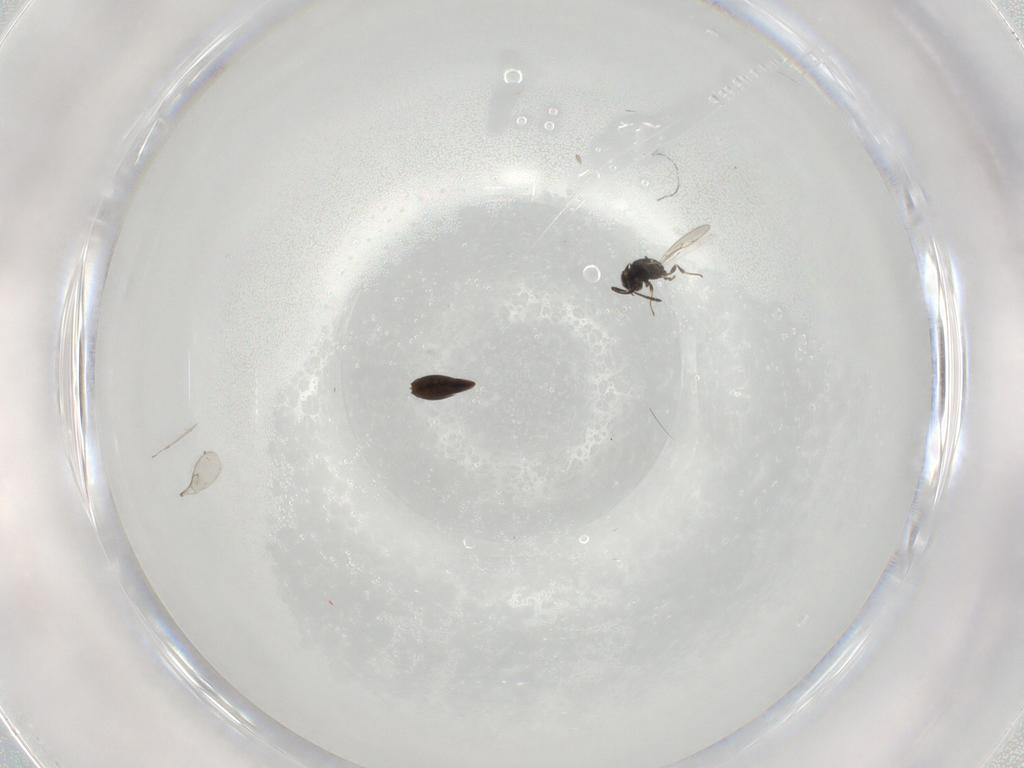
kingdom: Animalia
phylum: Arthropoda
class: Insecta
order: Hymenoptera
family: Scelionidae
